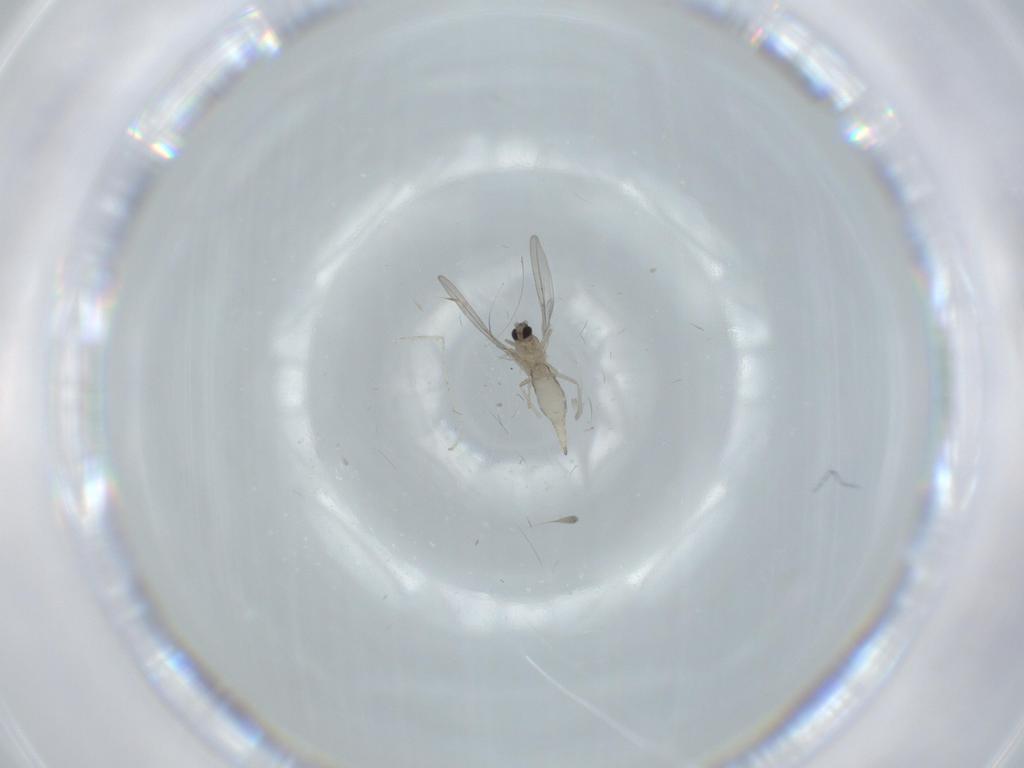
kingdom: Animalia
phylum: Arthropoda
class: Insecta
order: Diptera
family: Cecidomyiidae
